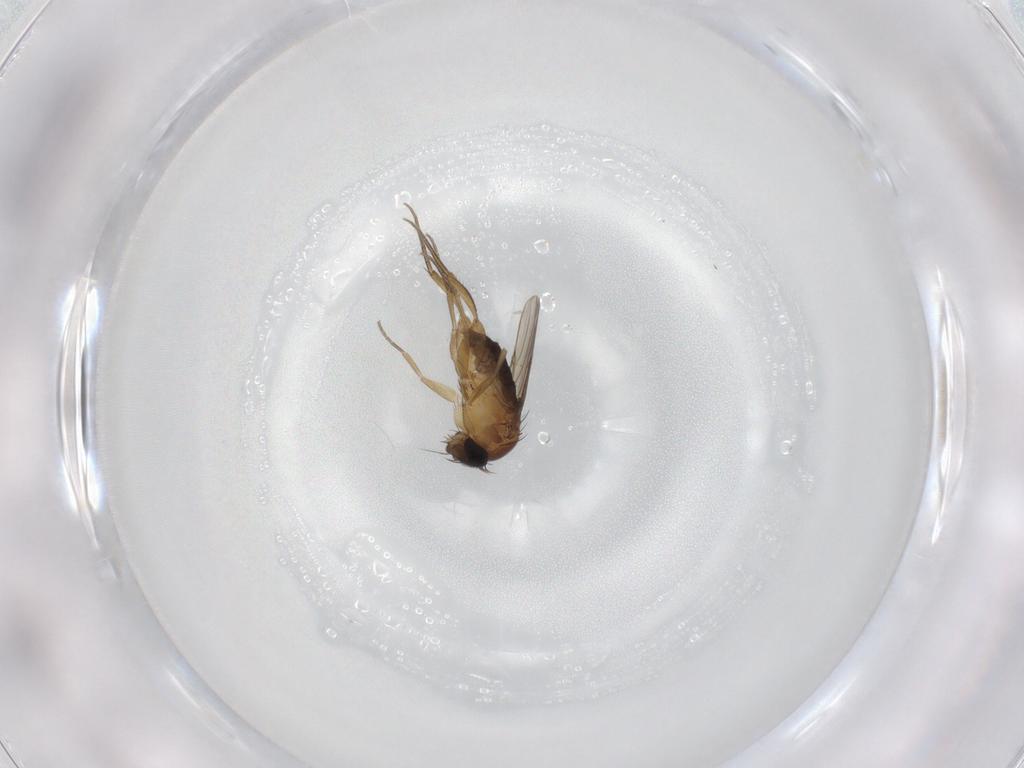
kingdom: Animalia
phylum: Arthropoda
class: Insecta
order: Diptera
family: Phoridae
